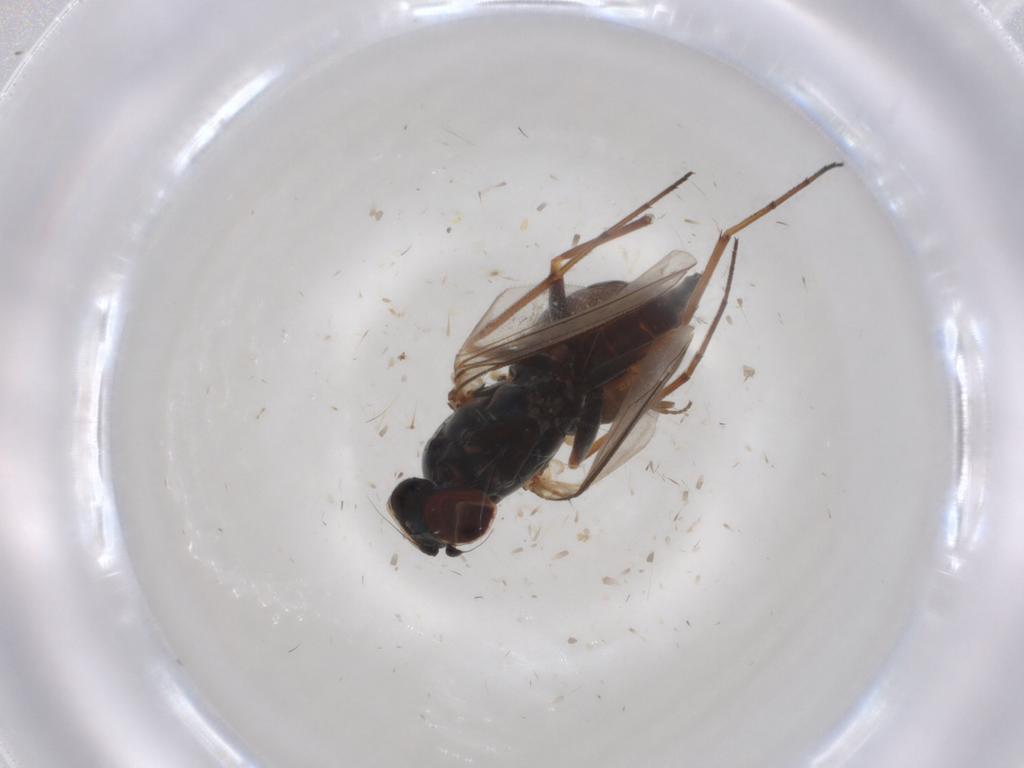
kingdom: Animalia
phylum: Arthropoda
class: Insecta
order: Diptera
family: Dolichopodidae
